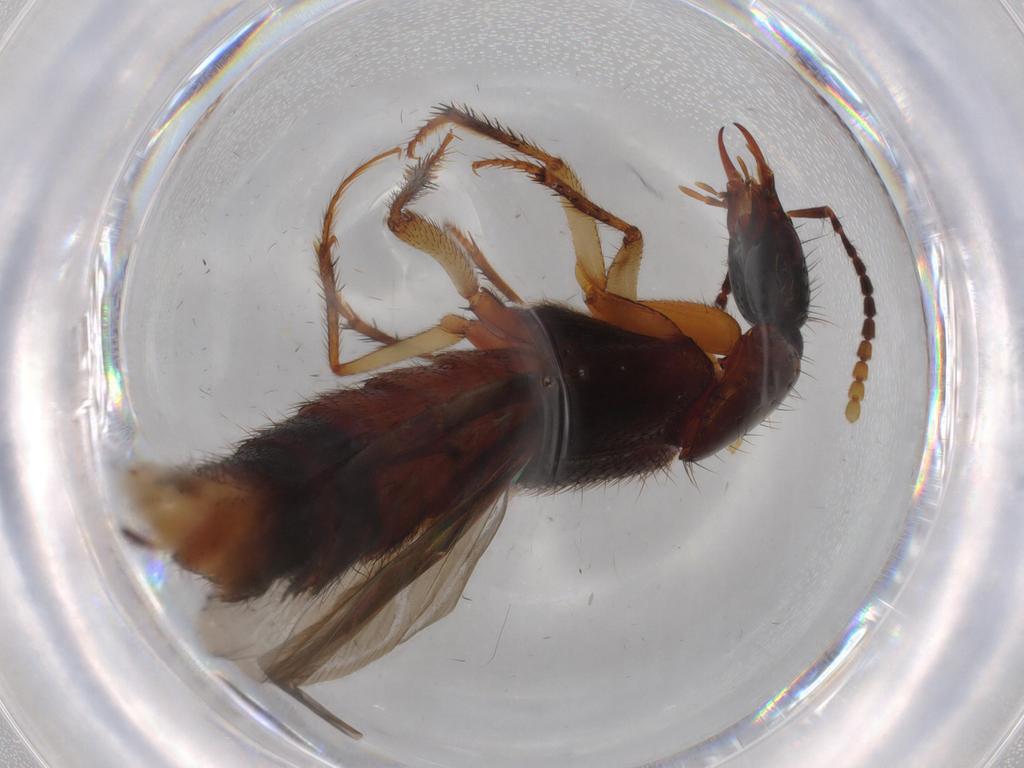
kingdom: Animalia
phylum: Arthropoda
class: Insecta
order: Coleoptera
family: Staphylinidae
